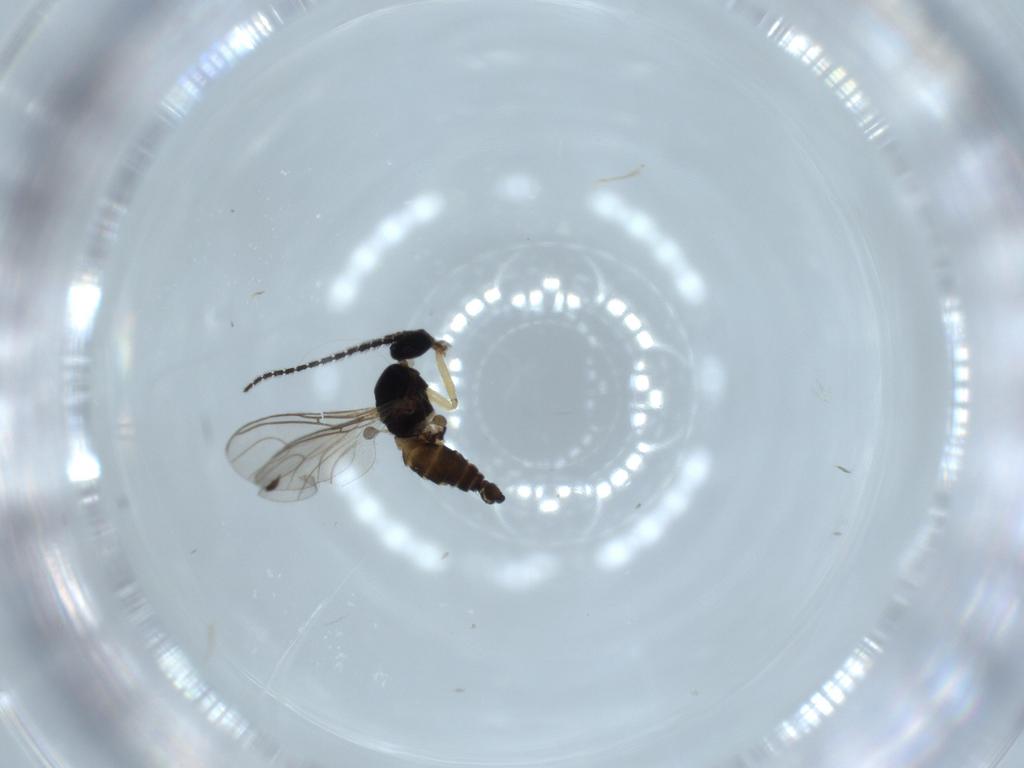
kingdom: Animalia
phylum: Arthropoda
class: Insecta
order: Diptera
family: Sciaridae
